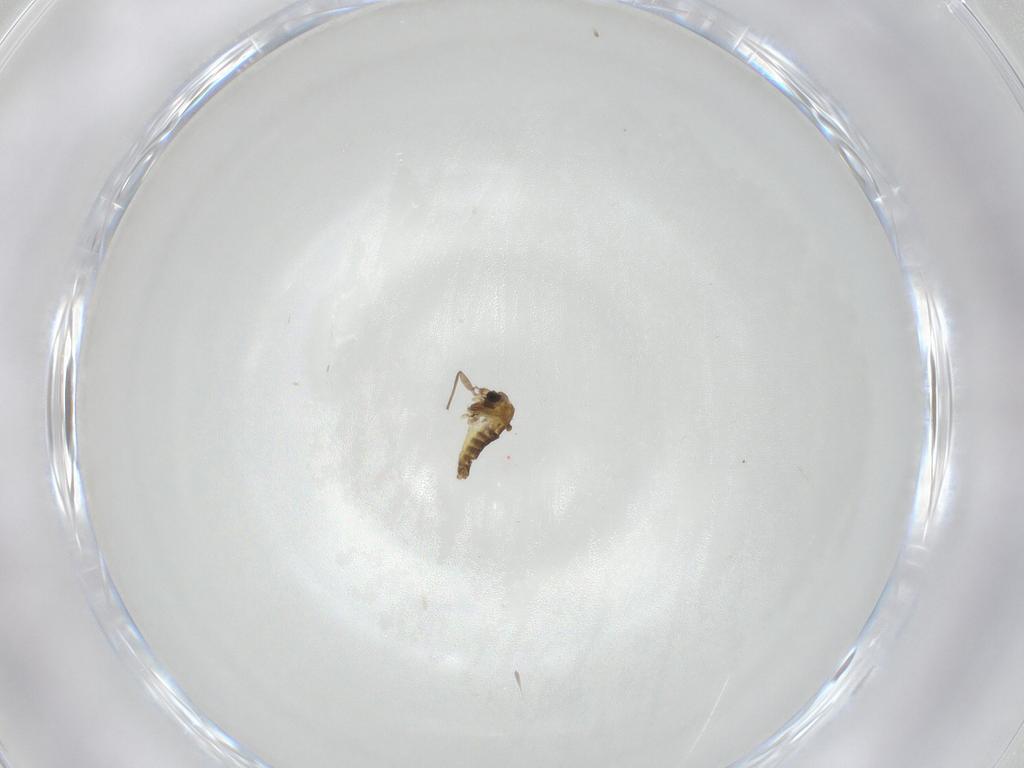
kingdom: Animalia
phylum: Arthropoda
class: Insecta
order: Diptera
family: Chironomidae
